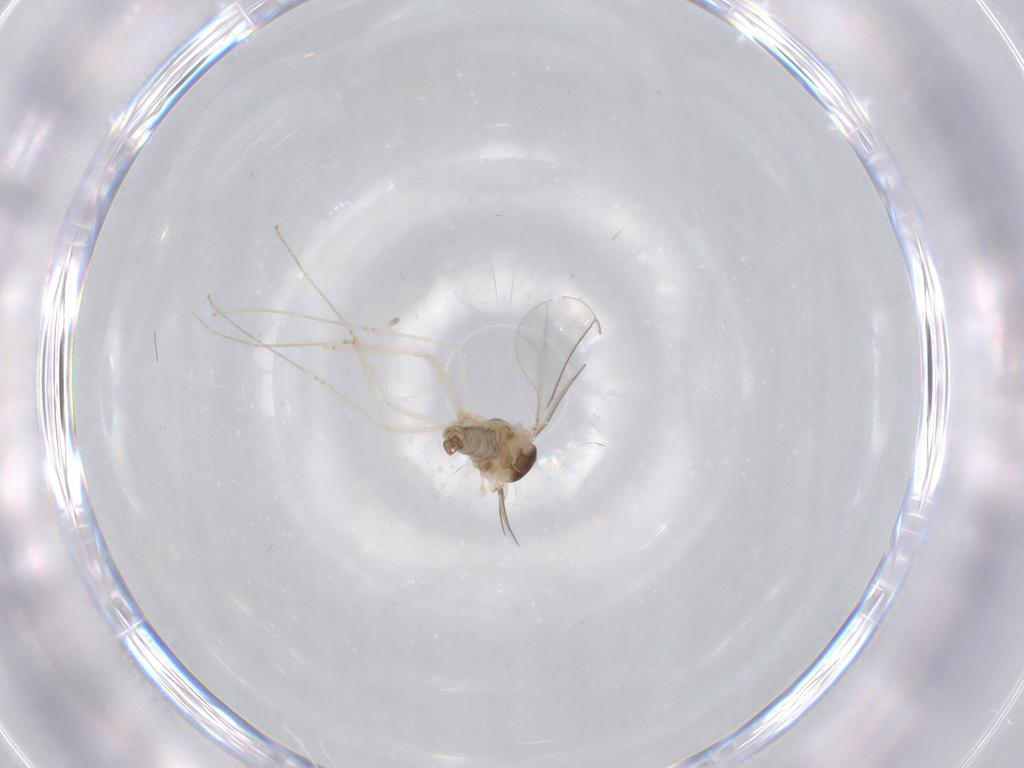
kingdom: Animalia
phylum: Arthropoda
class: Insecta
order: Diptera
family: Cecidomyiidae
